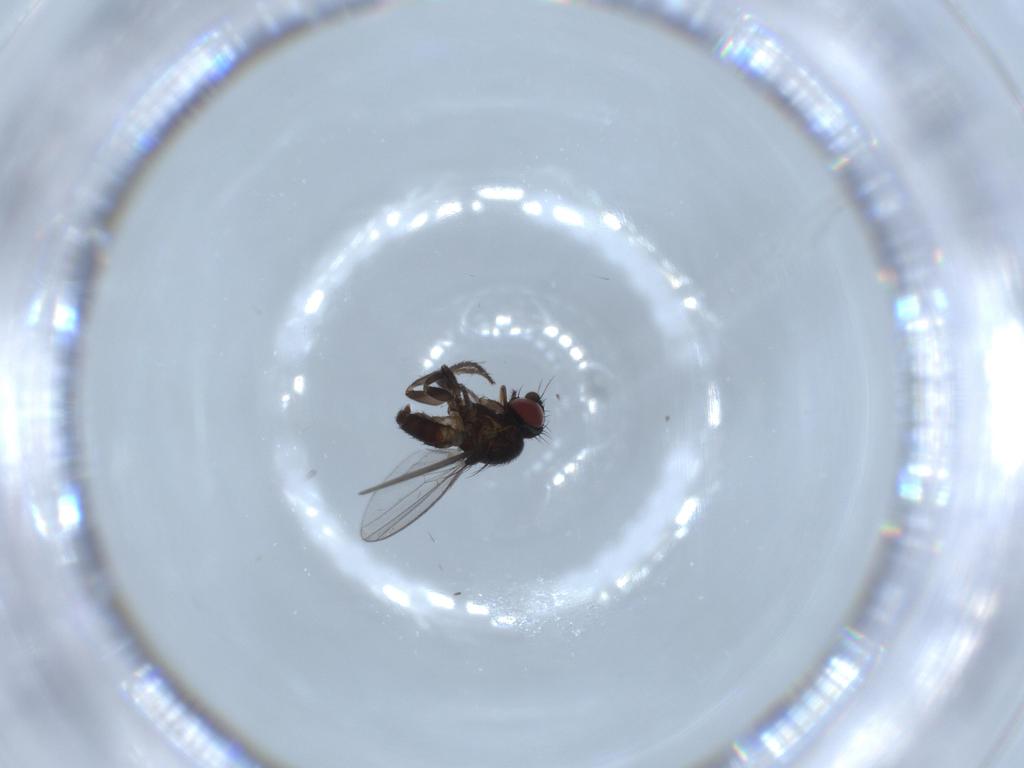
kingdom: Animalia
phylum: Arthropoda
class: Insecta
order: Diptera
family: Milichiidae
